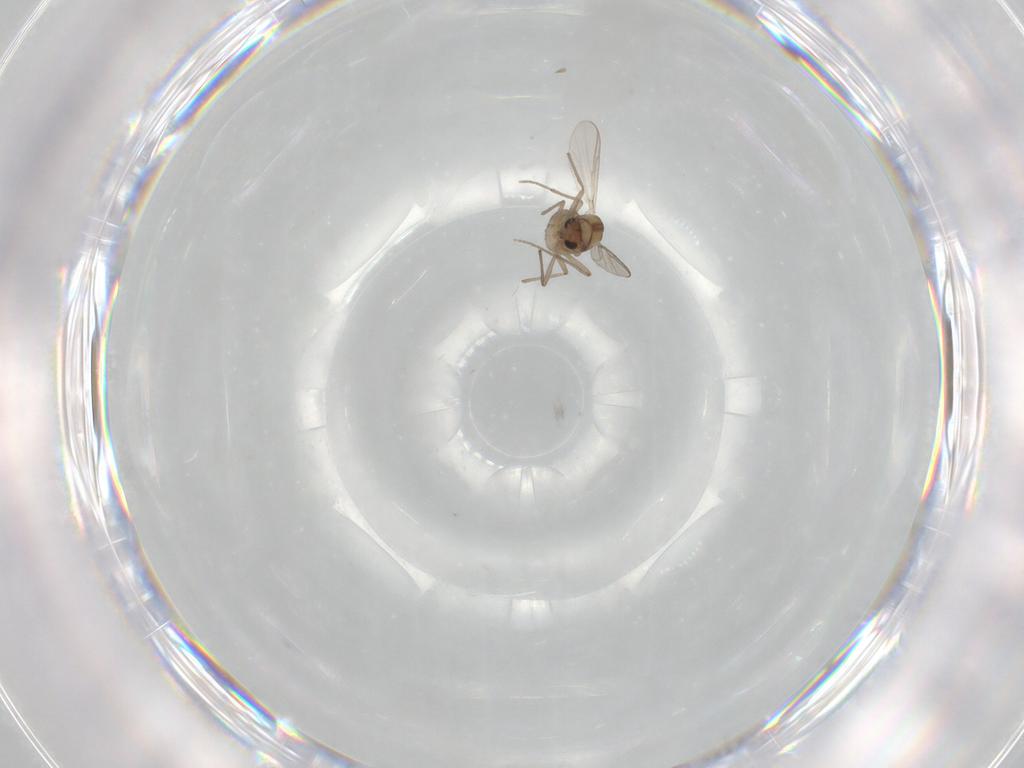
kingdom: Animalia
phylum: Arthropoda
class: Insecta
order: Diptera
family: Chironomidae
